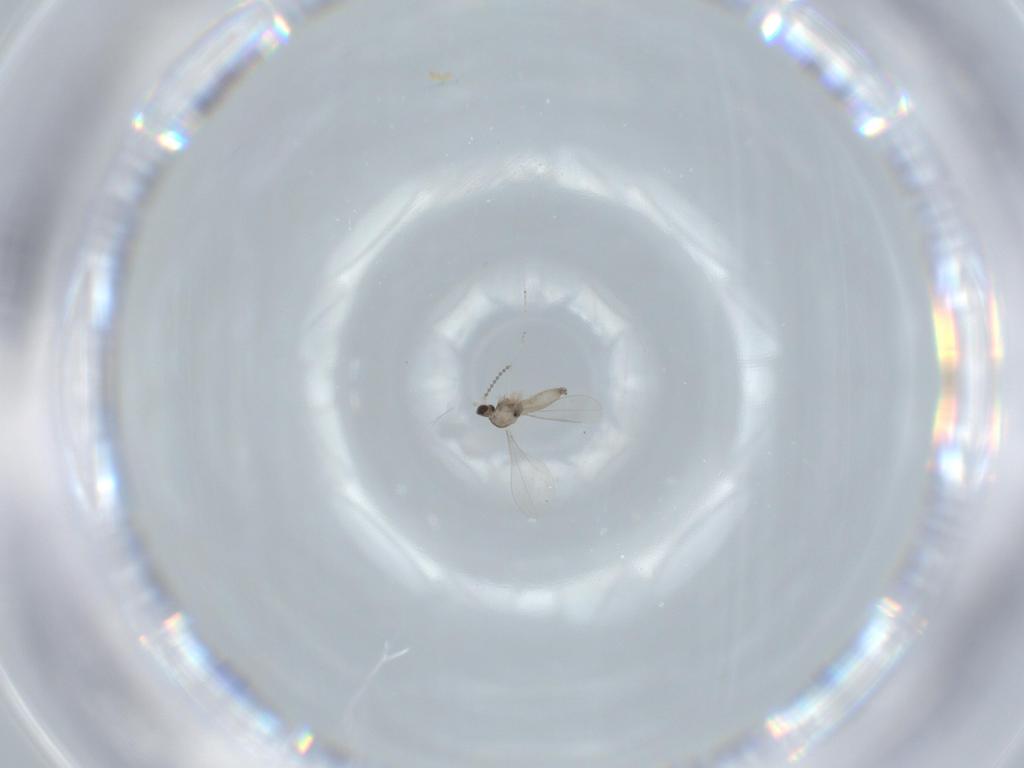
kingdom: Animalia
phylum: Arthropoda
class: Insecta
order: Diptera
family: Cecidomyiidae
